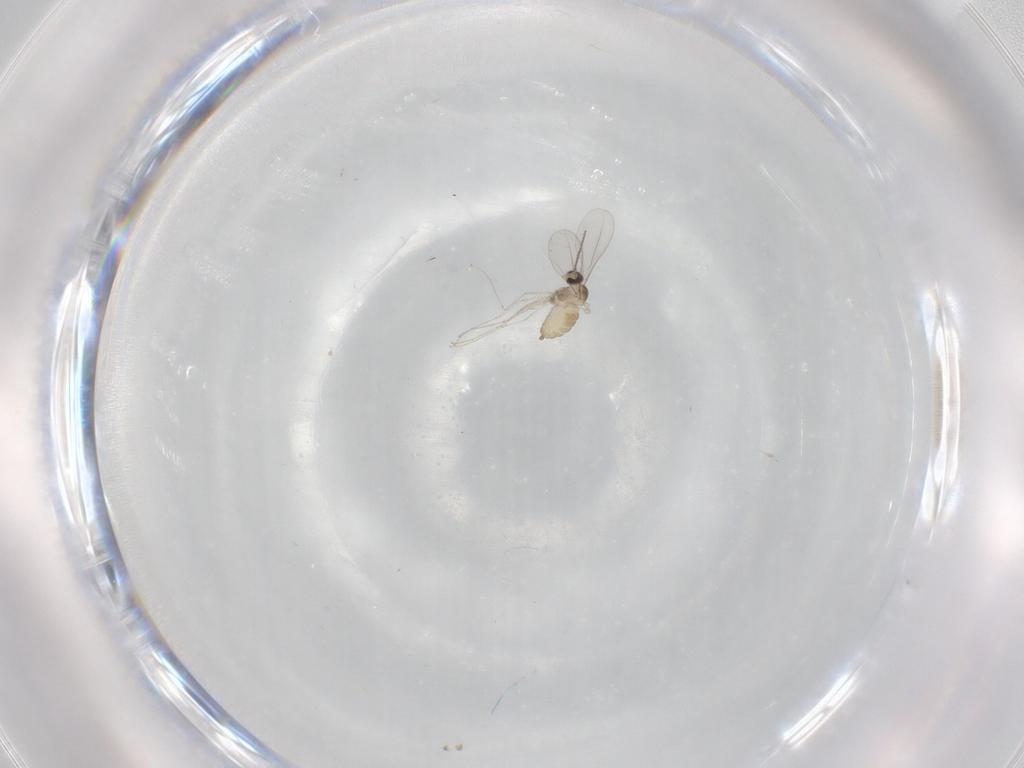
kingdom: Animalia
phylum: Arthropoda
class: Insecta
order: Diptera
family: Cecidomyiidae
